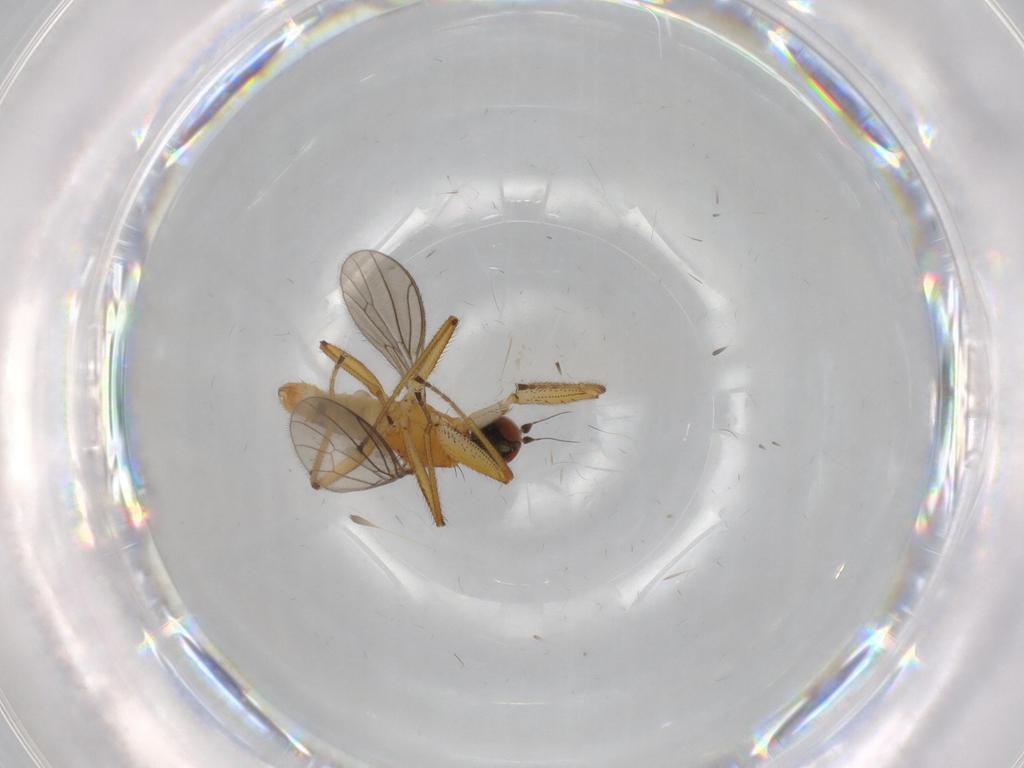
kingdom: Animalia
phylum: Arthropoda
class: Insecta
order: Diptera
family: Empididae
